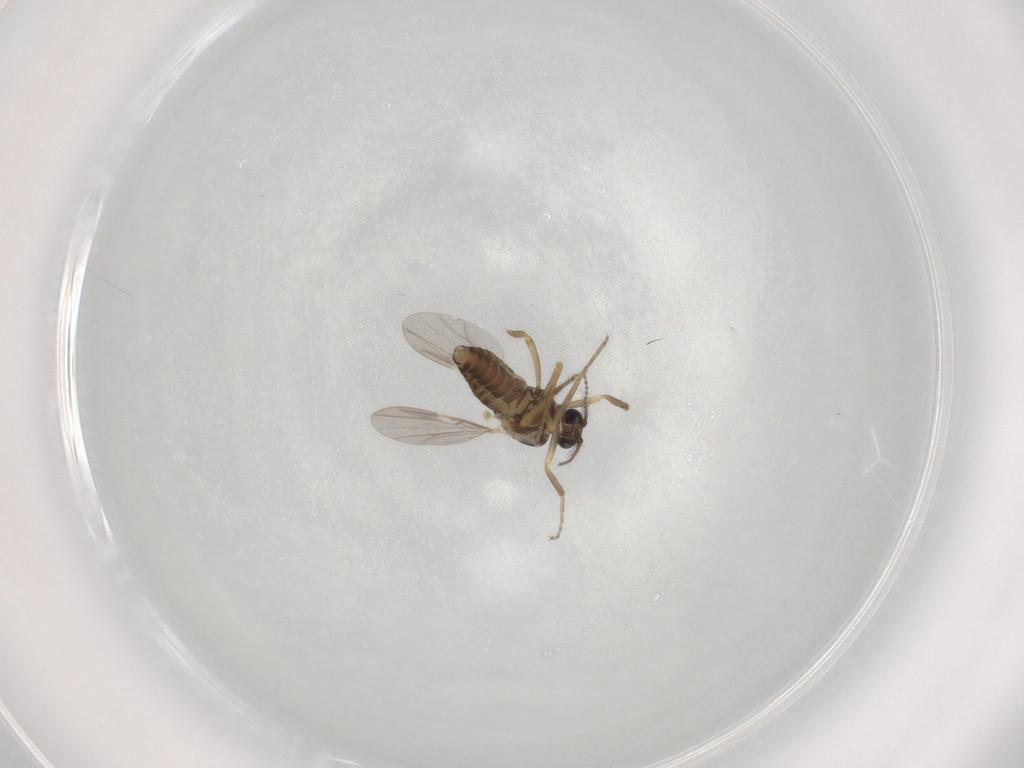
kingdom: Animalia
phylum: Arthropoda
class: Insecta
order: Diptera
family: Ceratopogonidae
